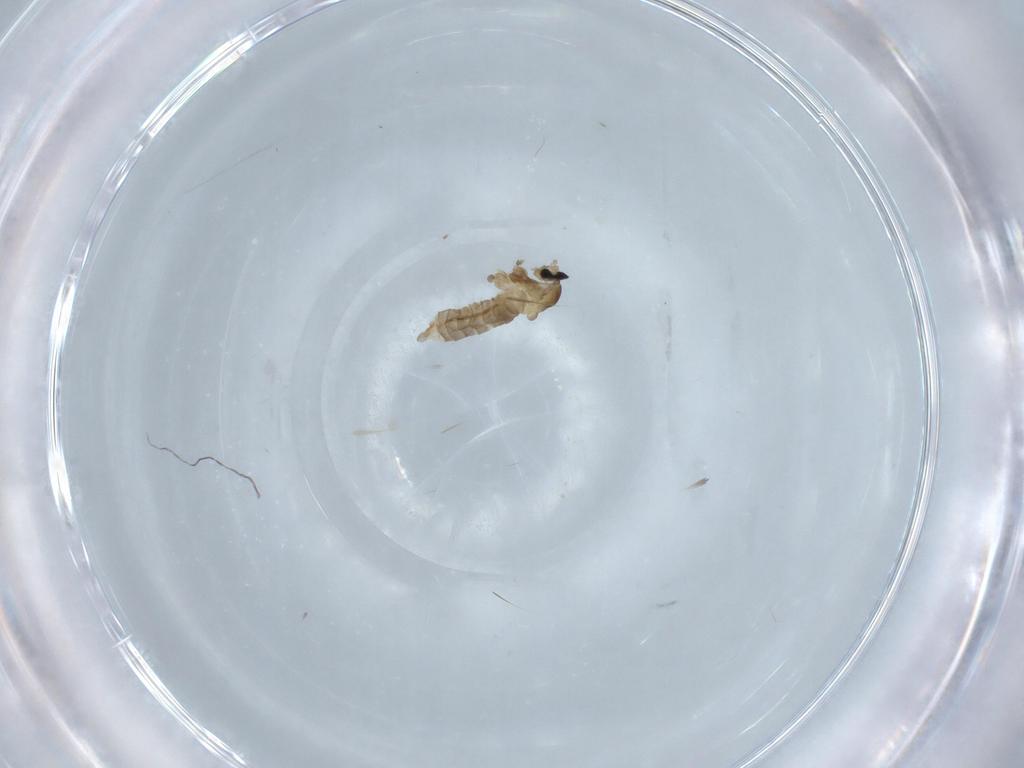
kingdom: Animalia
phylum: Arthropoda
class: Insecta
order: Diptera
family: Cecidomyiidae
